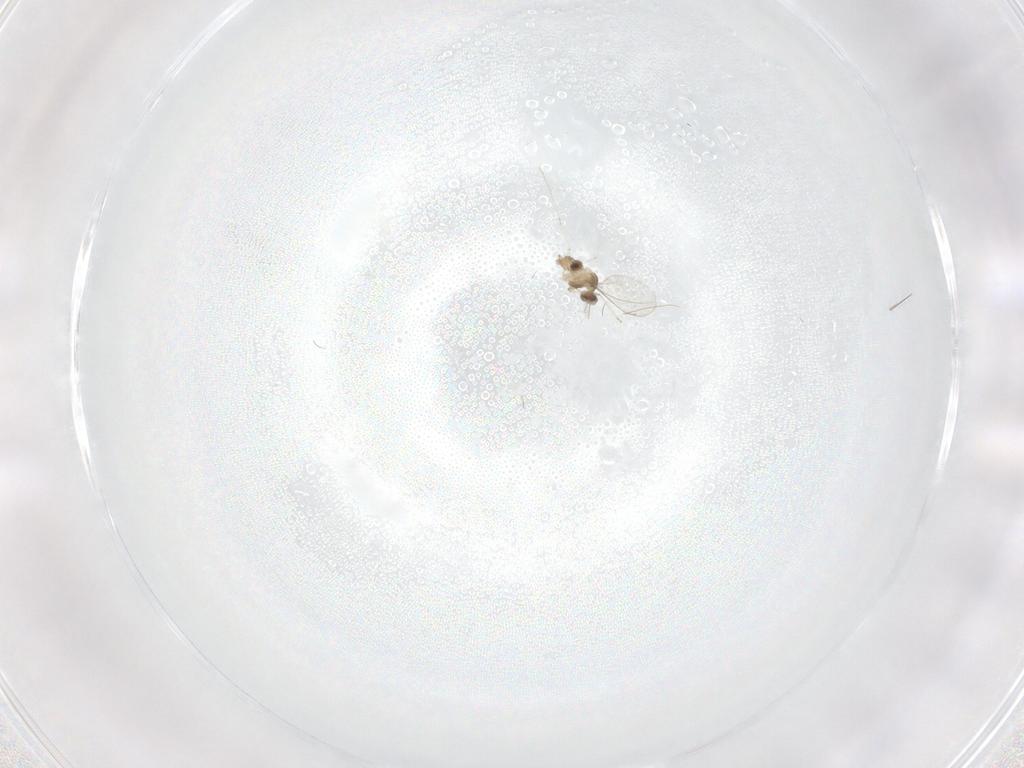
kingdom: Animalia
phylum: Arthropoda
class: Insecta
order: Diptera
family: Cecidomyiidae
